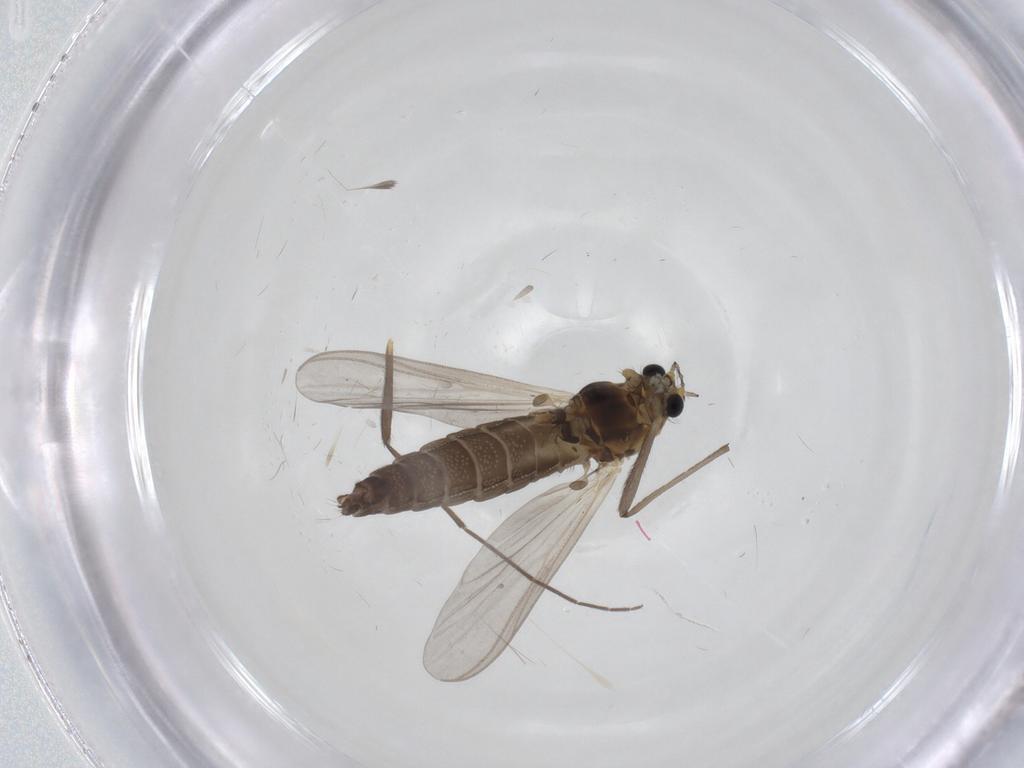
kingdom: Animalia
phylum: Arthropoda
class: Insecta
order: Diptera
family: Chironomidae
